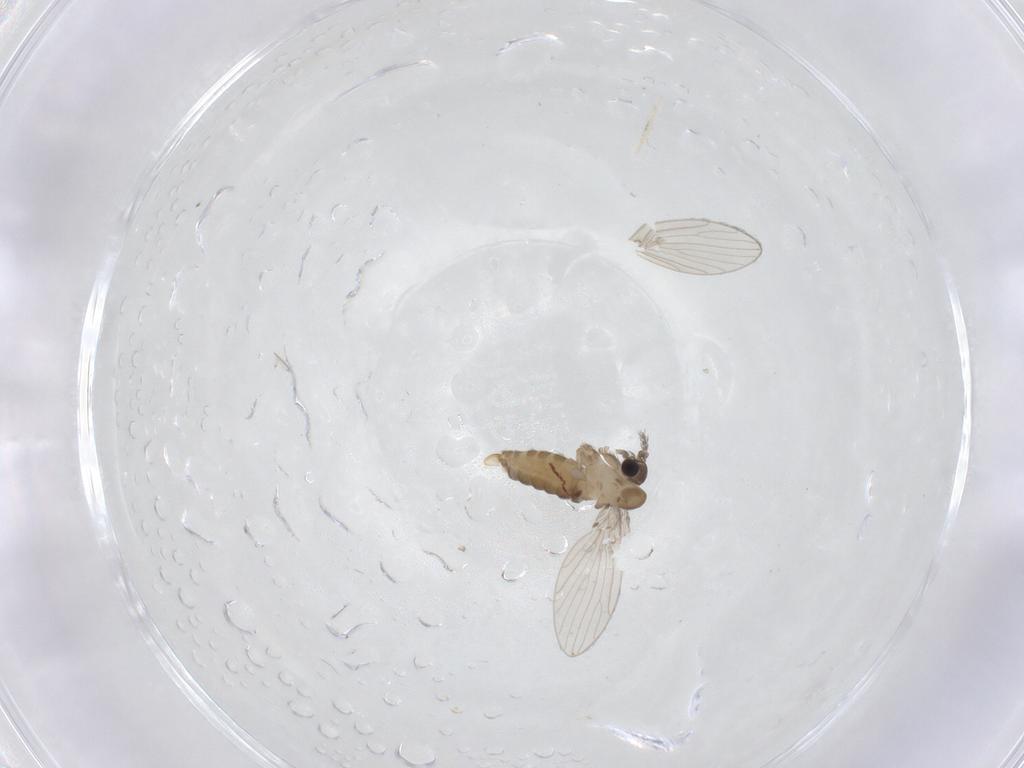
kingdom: Animalia
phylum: Arthropoda
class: Insecta
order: Diptera
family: Psychodidae
